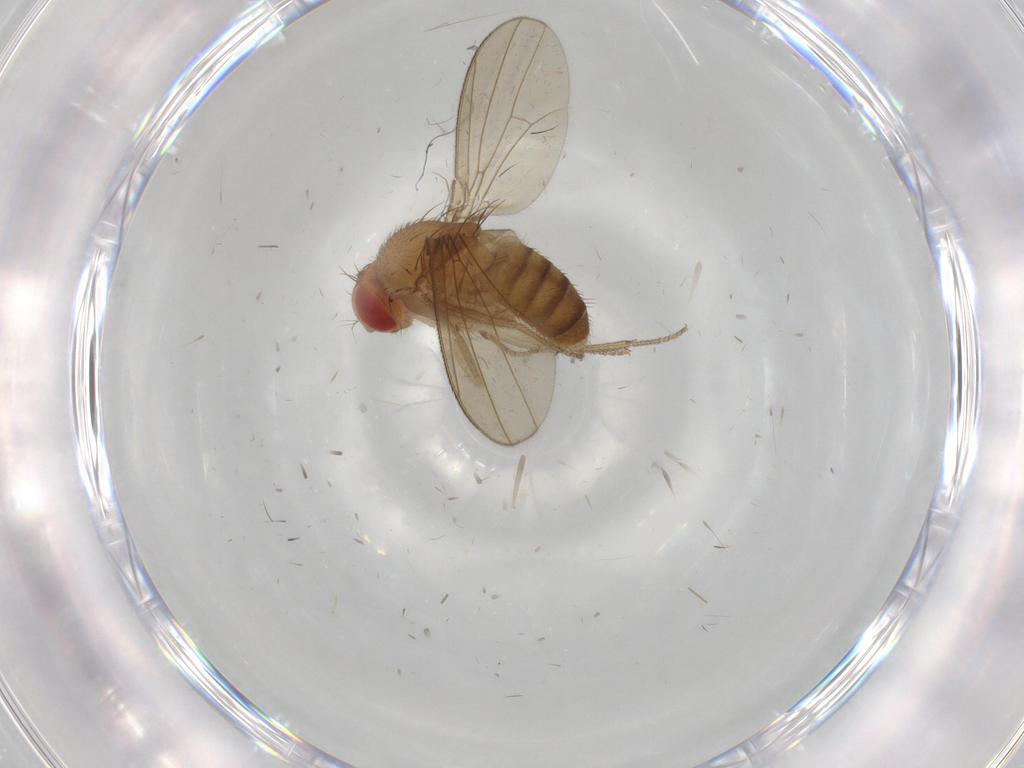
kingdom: Animalia
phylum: Arthropoda
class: Insecta
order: Diptera
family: Drosophilidae
